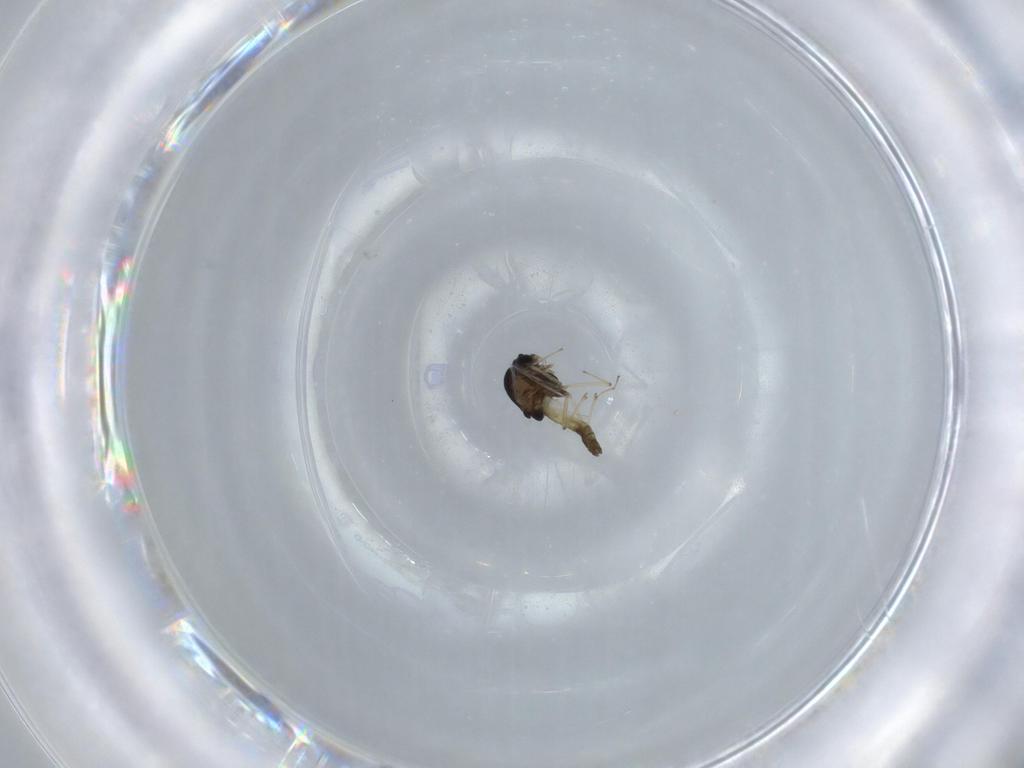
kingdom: Animalia
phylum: Arthropoda
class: Insecta
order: Diptera
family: Chironomidae
